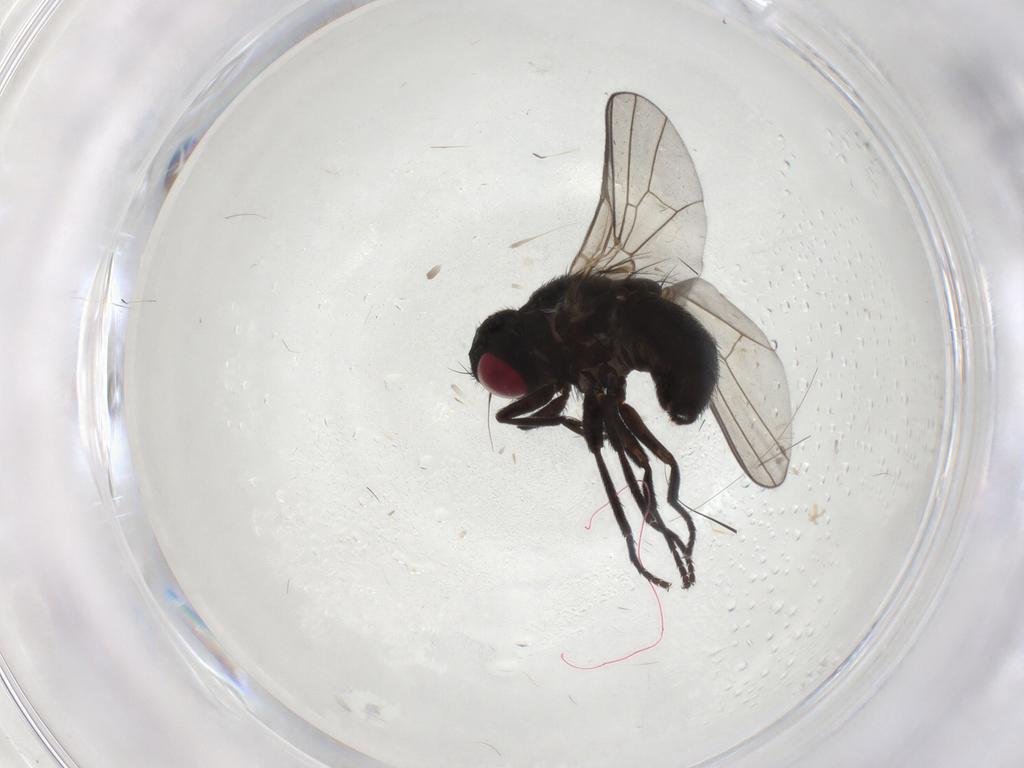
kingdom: Animalia
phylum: Arthropoda
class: Insecta
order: Diptera
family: Agromyzidae
